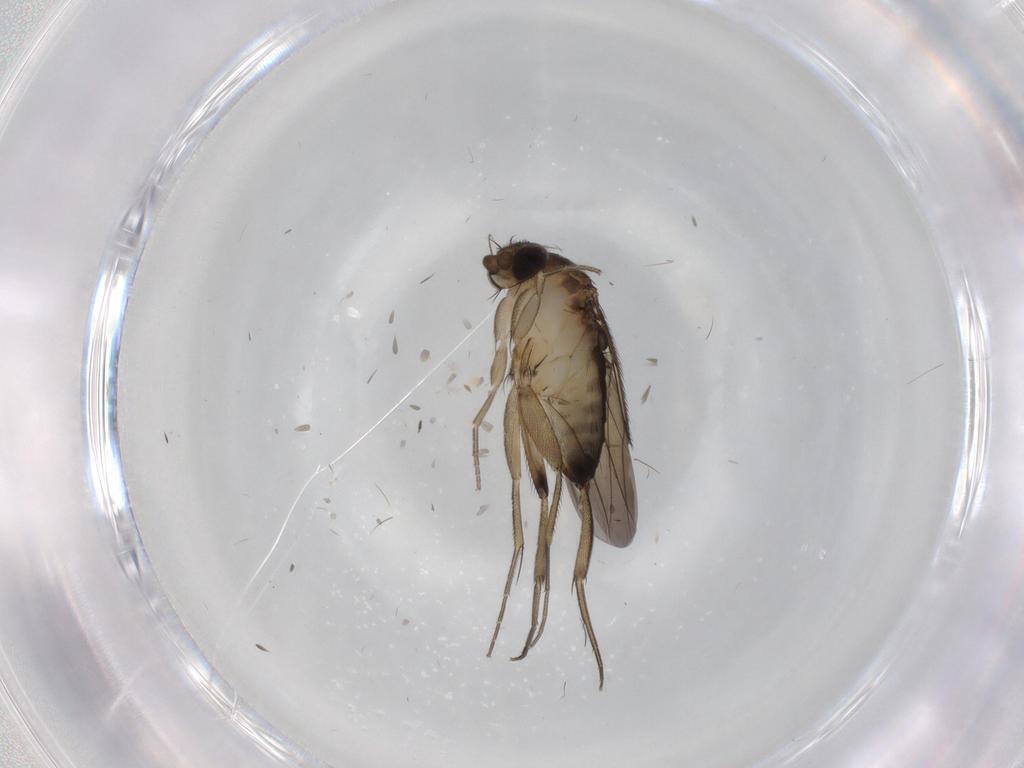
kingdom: Animalia
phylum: Arthropoda
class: Insecta
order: Diptera
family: Phoridae
